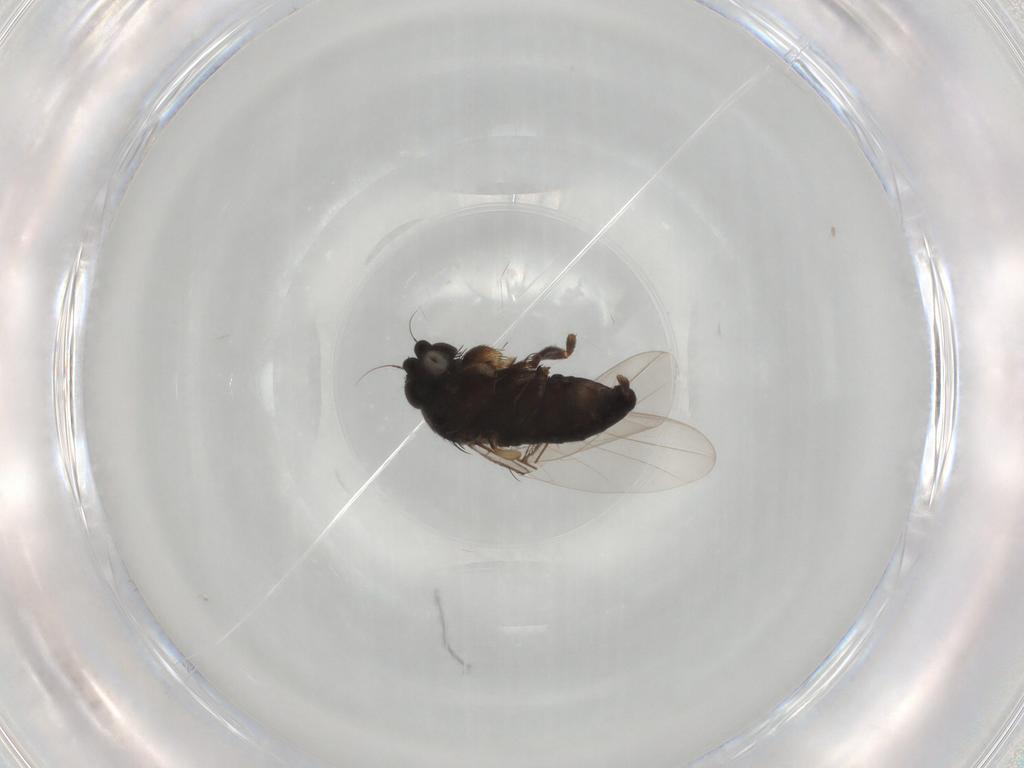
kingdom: Animalia
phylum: Arthropoda
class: Insecta
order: Diptera
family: Phoridae
